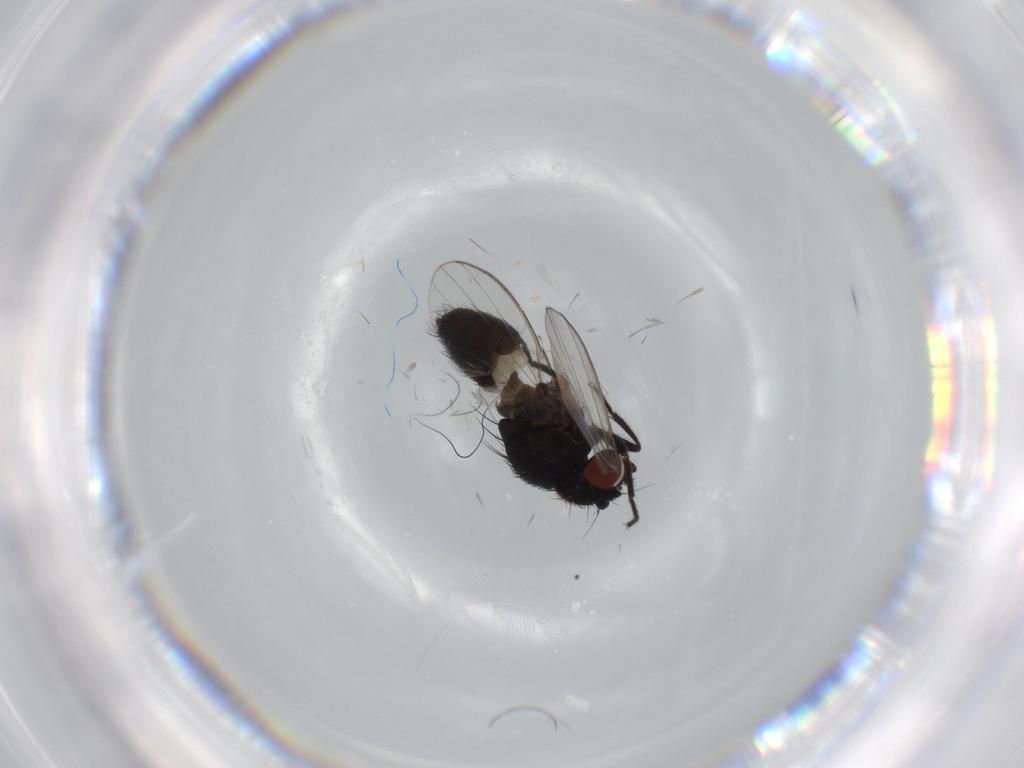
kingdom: Animalia
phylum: Arthropoda
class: Insecta
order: Diptera
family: Milichiidae
